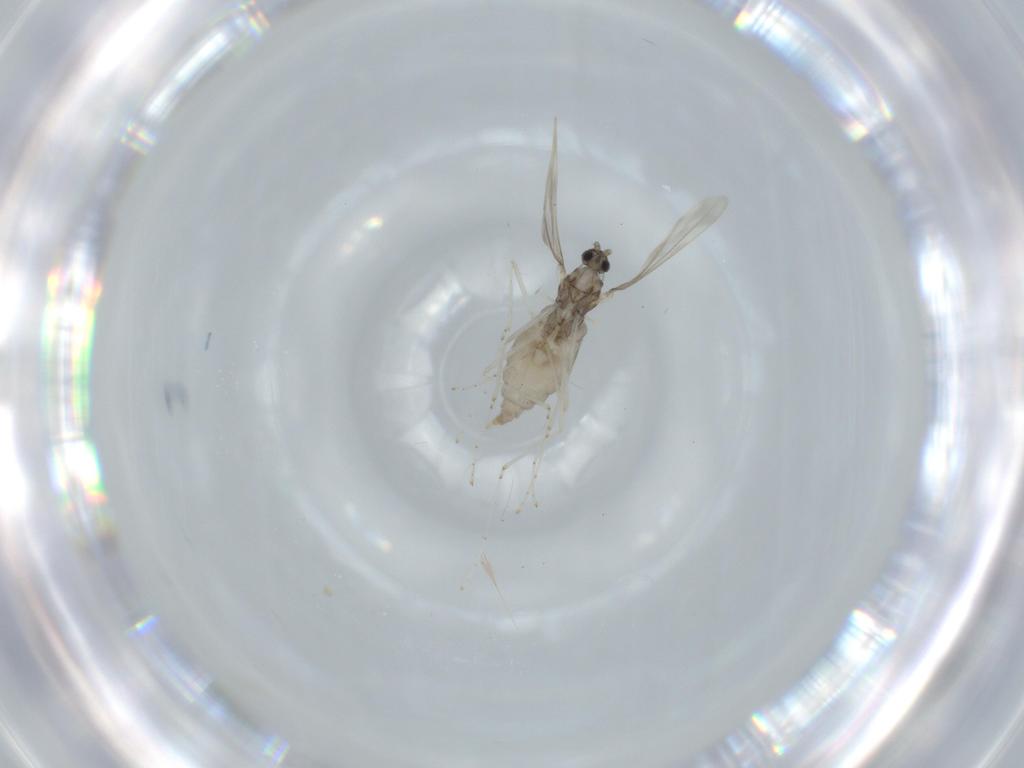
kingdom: Animalia
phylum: Arthropoda
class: Insecta
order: Diptera
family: Cecidomyiidae
